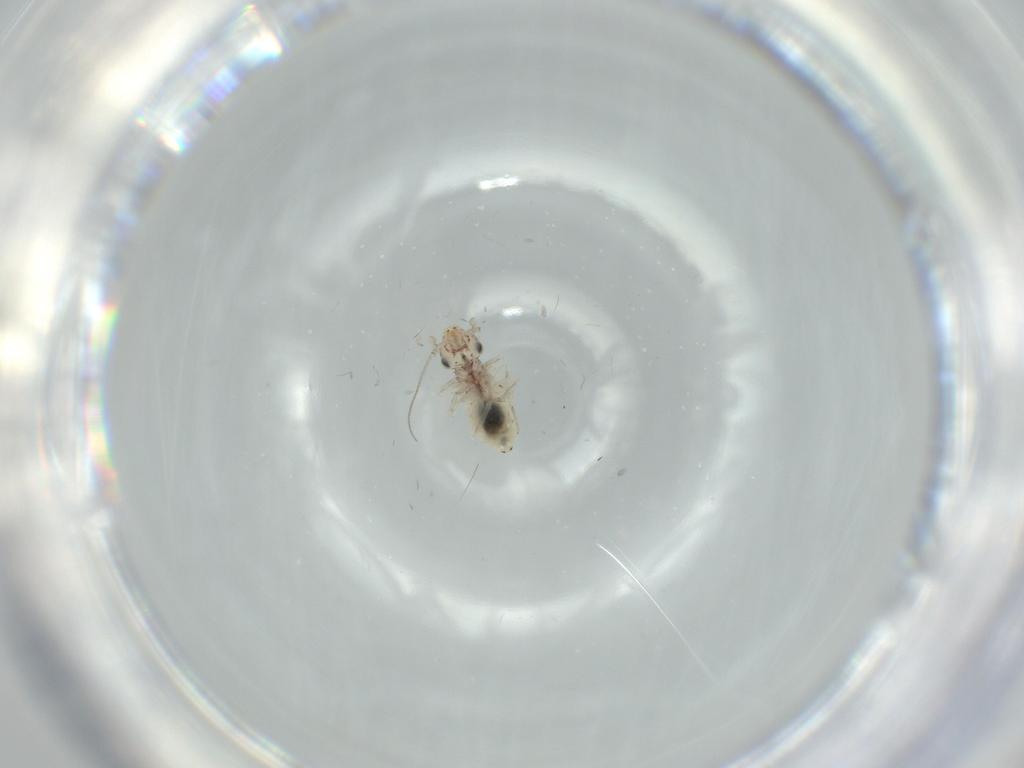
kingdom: Animalia
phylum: Arthropoda
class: Insecta
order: Psocodea
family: Lepidopsocidae
